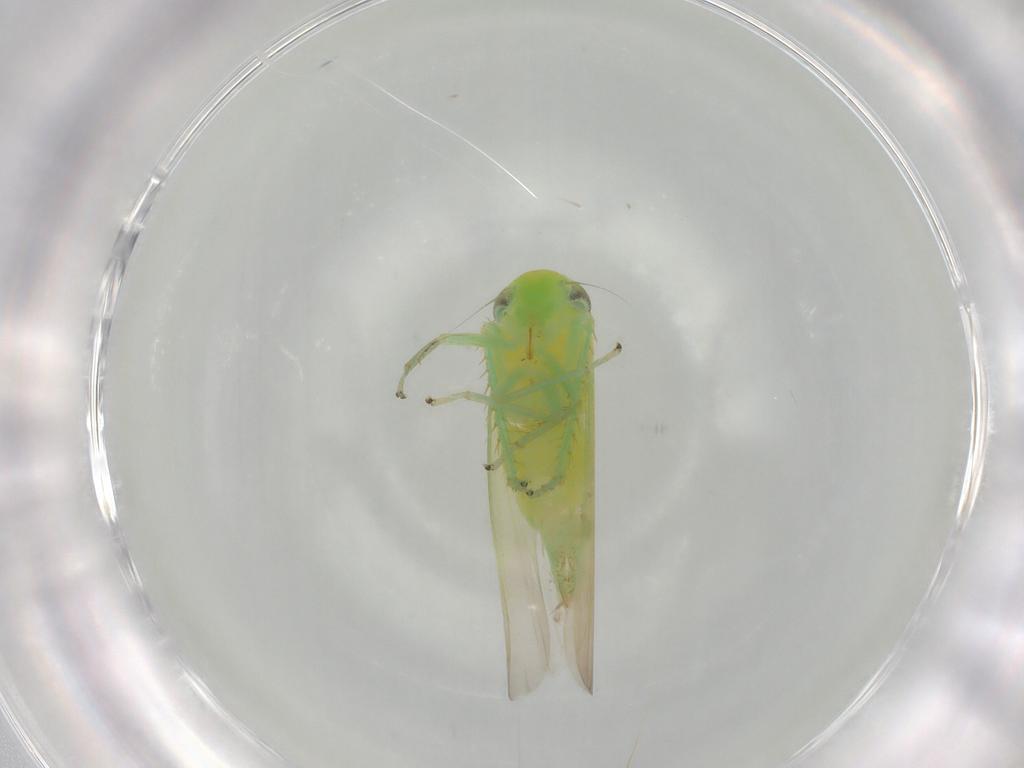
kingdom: Animalia
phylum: Arthropoda
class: Insecta
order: Hemiptera
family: Cicadellidae
